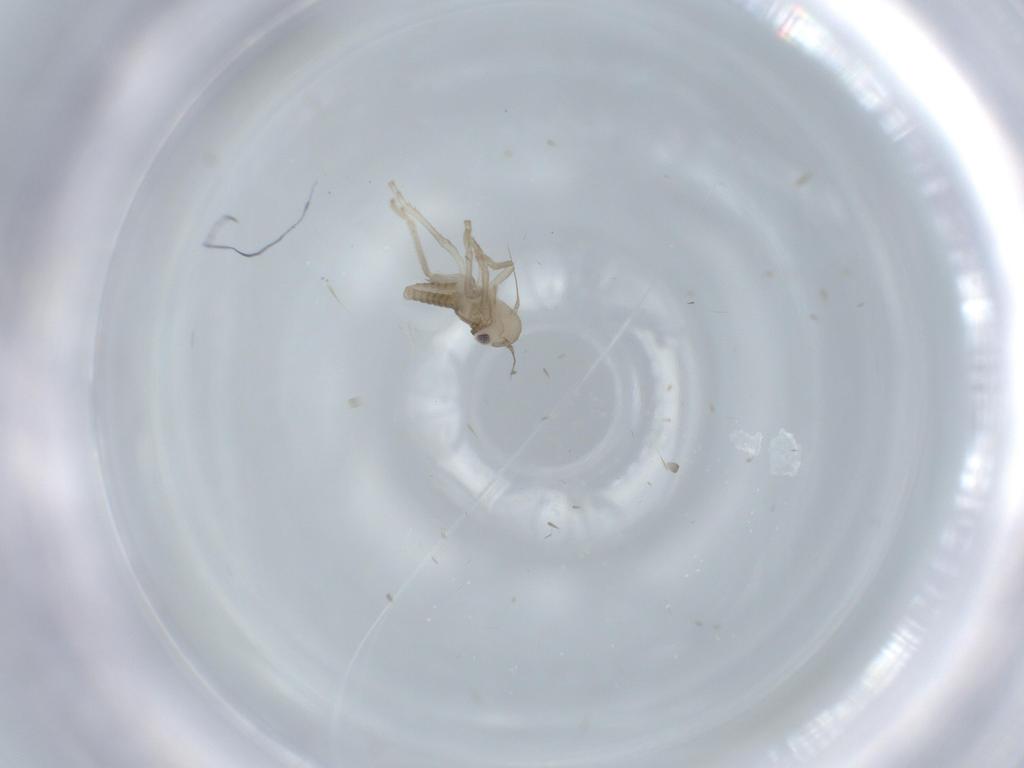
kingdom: Animalia
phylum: Arthropoda
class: Insecta
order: Hemiptera
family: Cicadellidae
